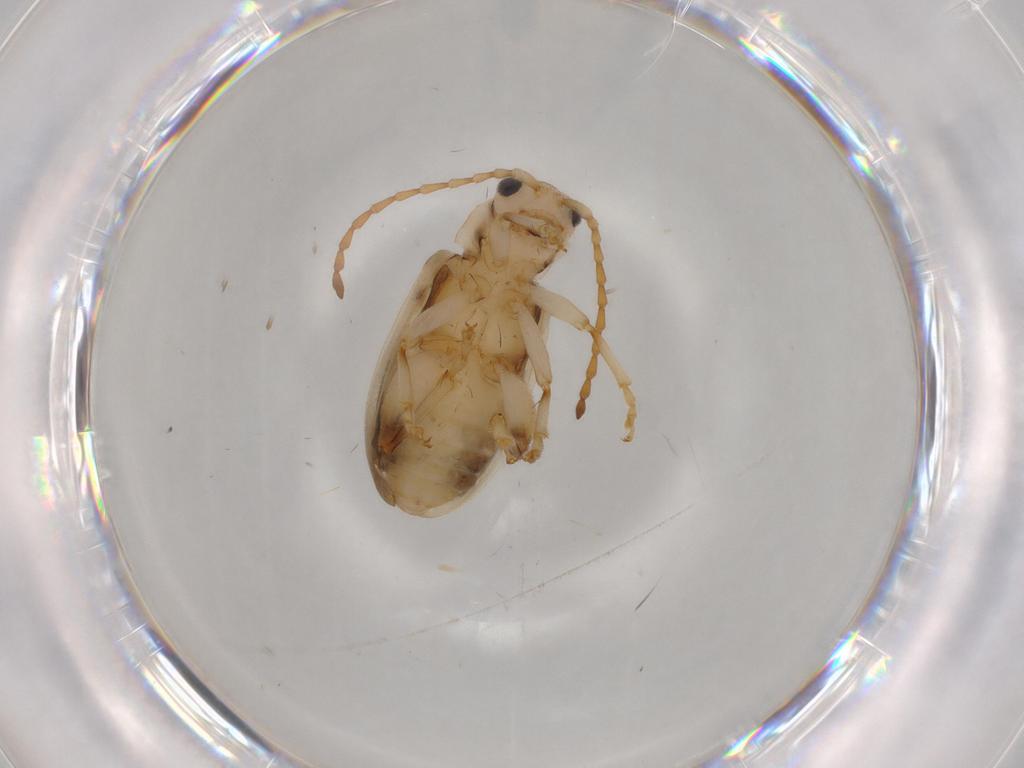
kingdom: Animalia
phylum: Arthropoda
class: Insecta
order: Coleoptera
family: Chrysomelidae
